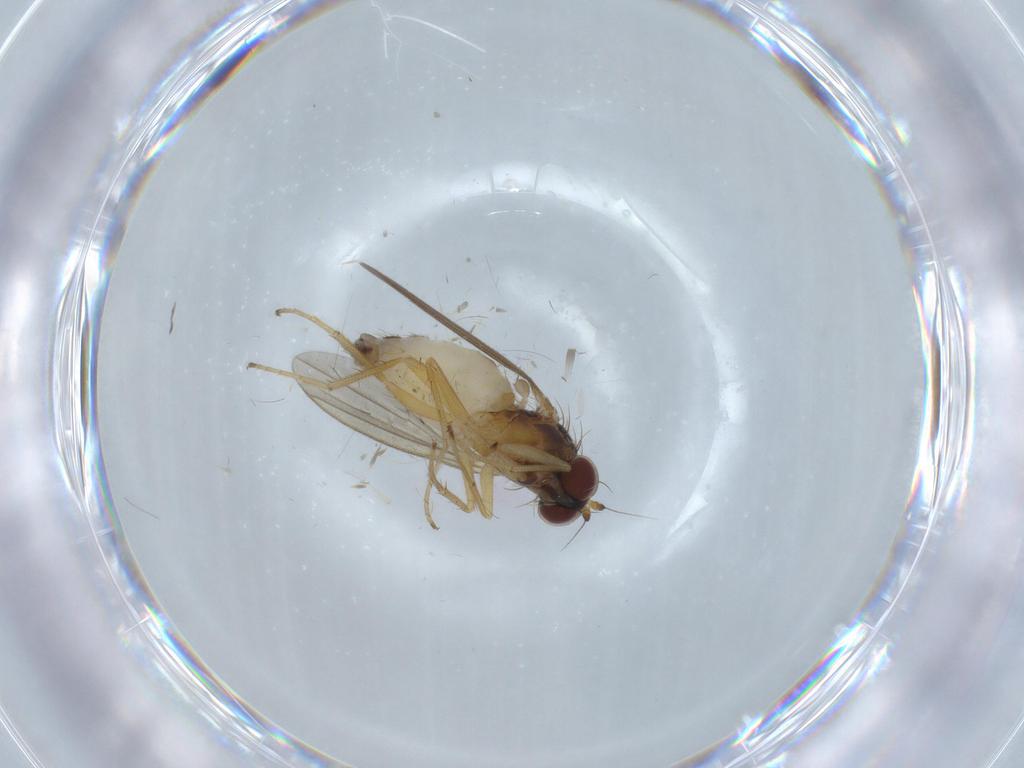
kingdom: Animalia
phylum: Arthropoda
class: Insecta
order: Diptera
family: Dolichopodidae
